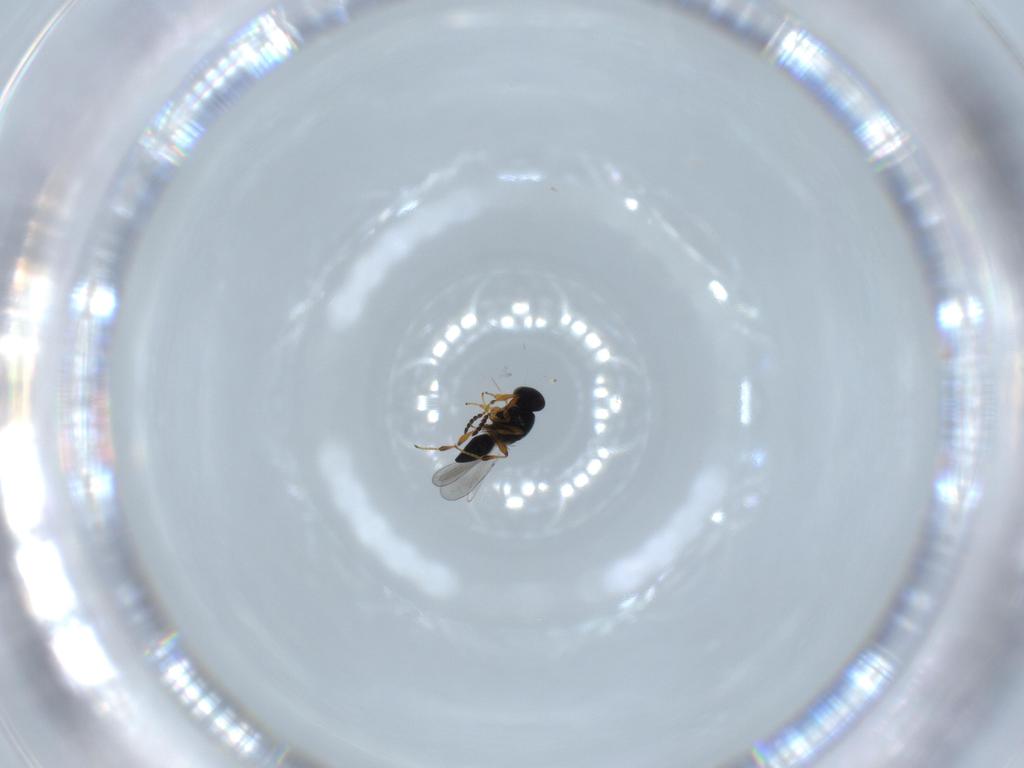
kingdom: Animalia
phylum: Arthropoda
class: Insecta
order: Hymenoptera
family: Platygastridae
